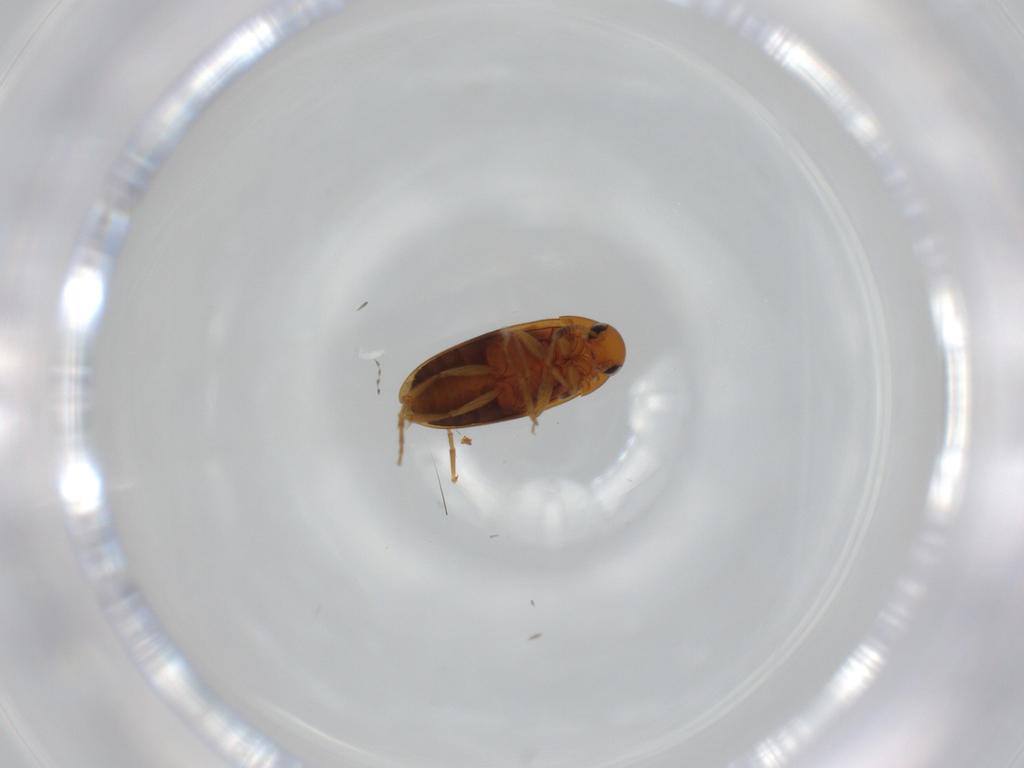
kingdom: Animalia
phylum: Arthropoda
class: Insecta
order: Coleoptera
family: Scraptiidae
